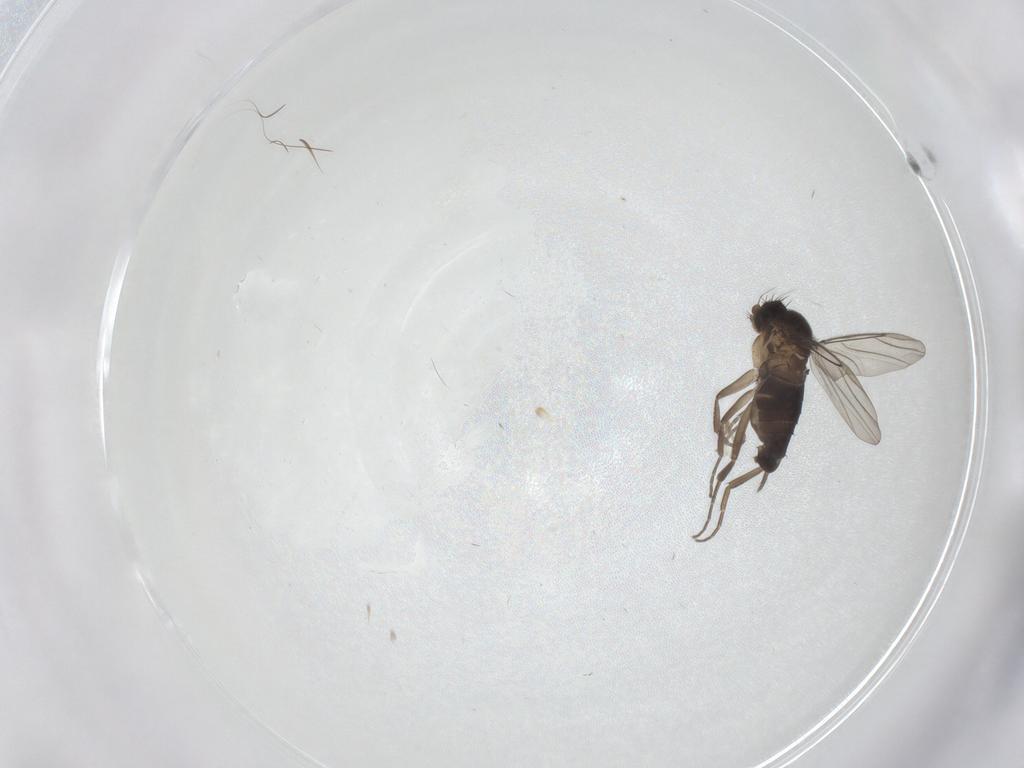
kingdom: Animalia
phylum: Arthropoda
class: Insecta
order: Diptera
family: Phoridae
